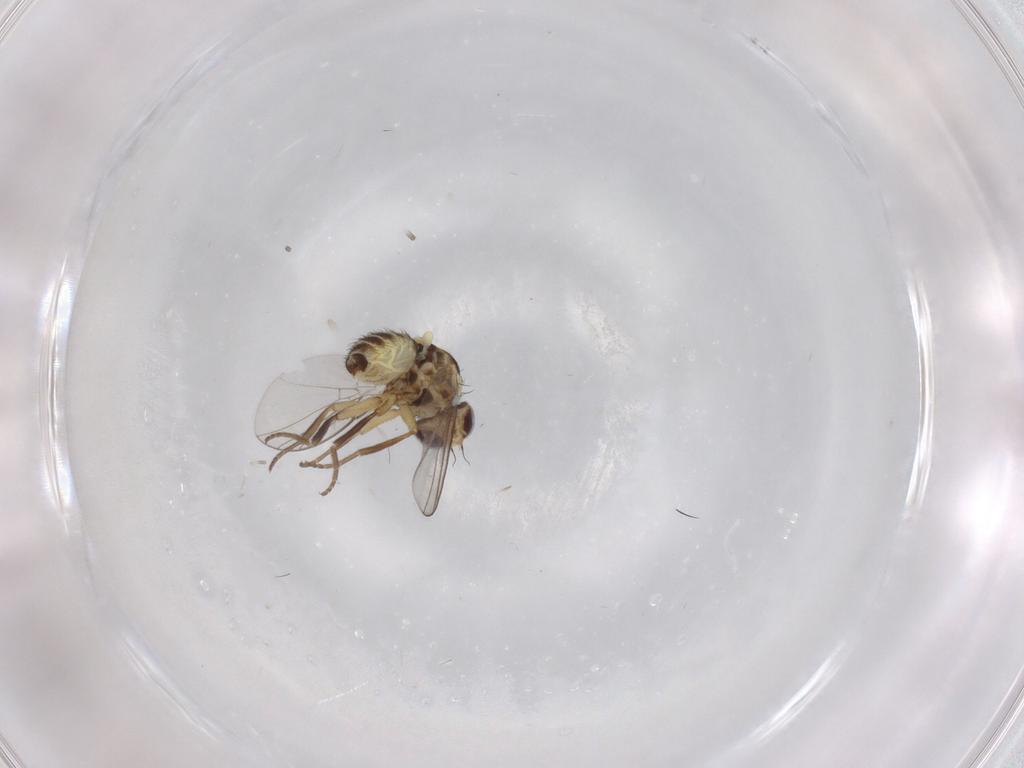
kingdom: Animalia
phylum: Arthropoda
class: Insecta
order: Diptera
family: Agromyzidae
